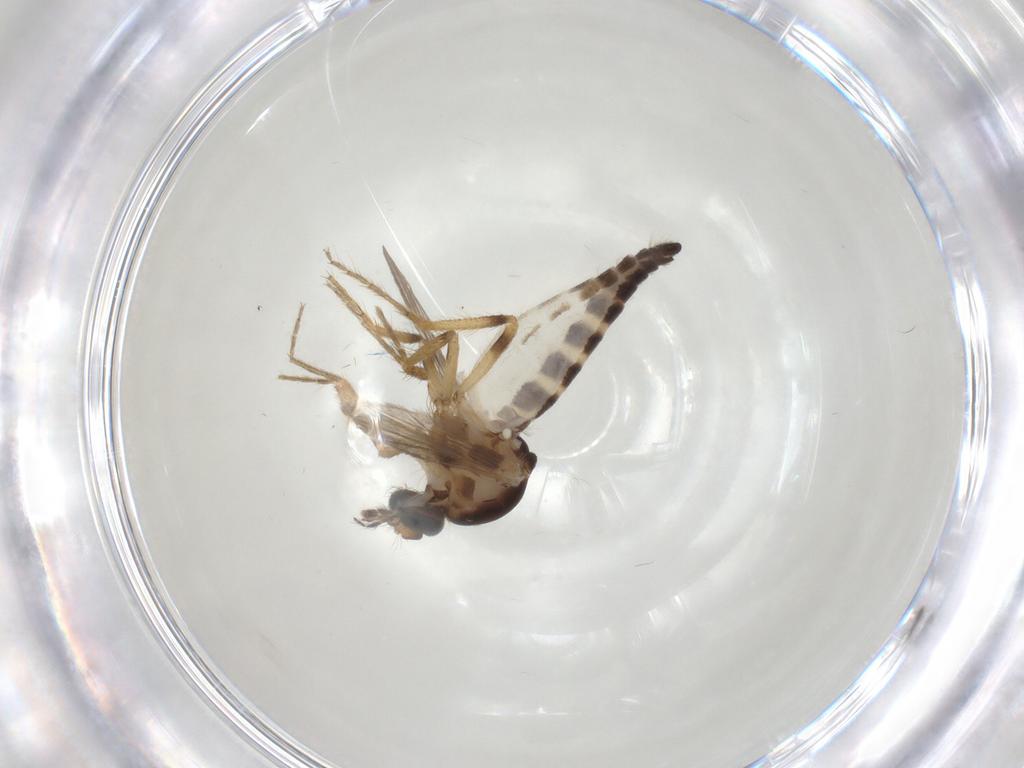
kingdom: Animalia
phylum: Arthropoda
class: Insecta
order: Diptera
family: Ceratopogonidae
